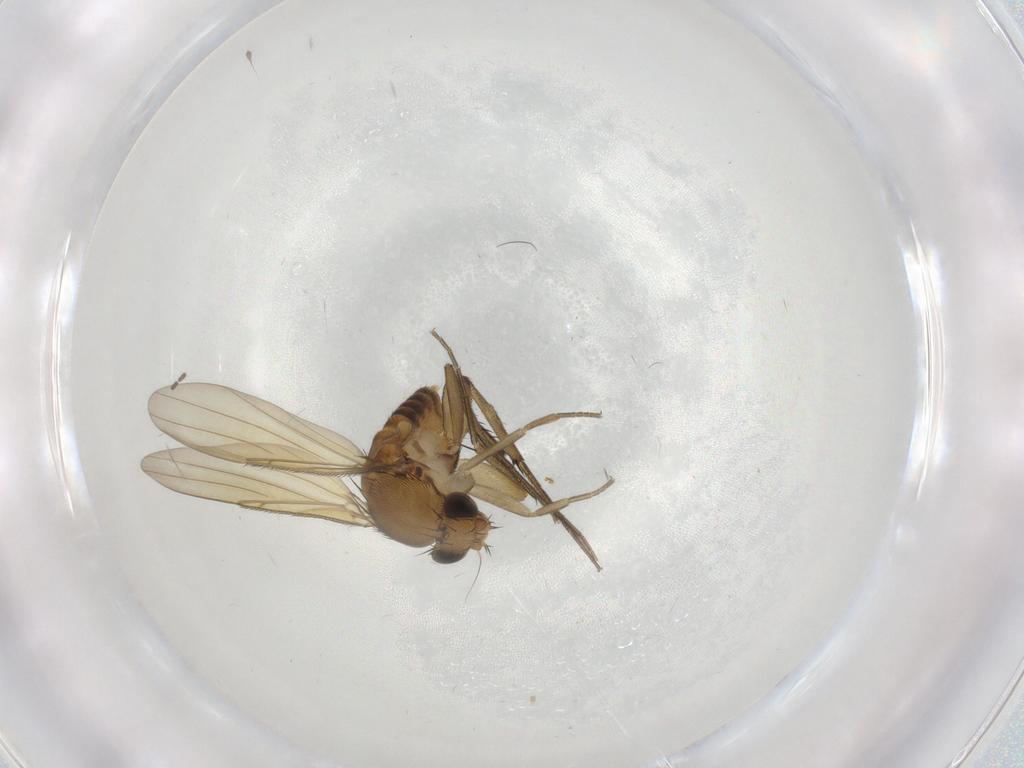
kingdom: Animalia
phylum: Arthropoda
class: Insecta
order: Diptera
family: Phoridae
